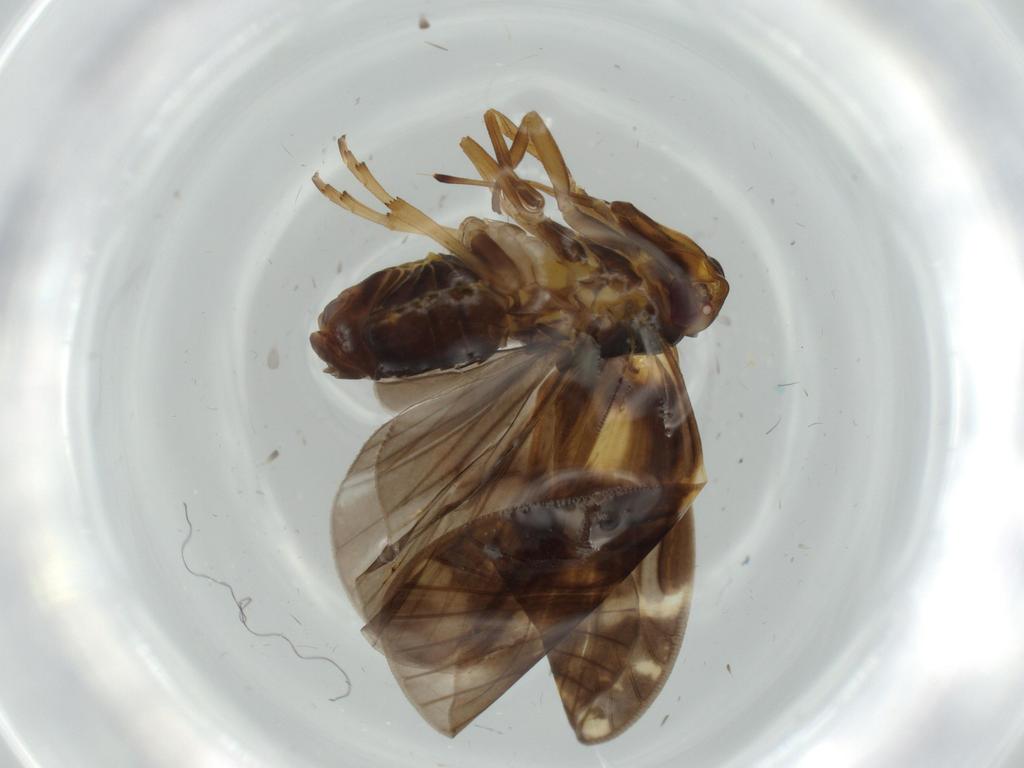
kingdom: Animalia
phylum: Arthropoda
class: Insecta
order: Hemiptera
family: Cixiidae
